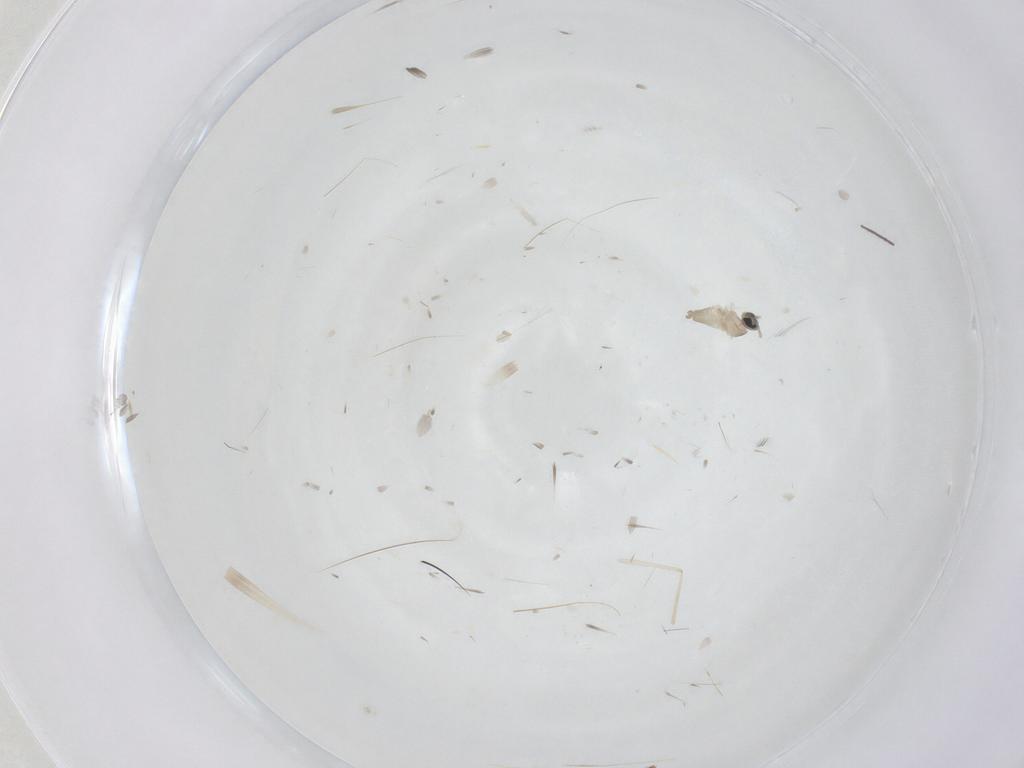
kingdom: Animalia
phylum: Arthropoda
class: Insecta
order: Diptera
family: Cecidomyiidae
